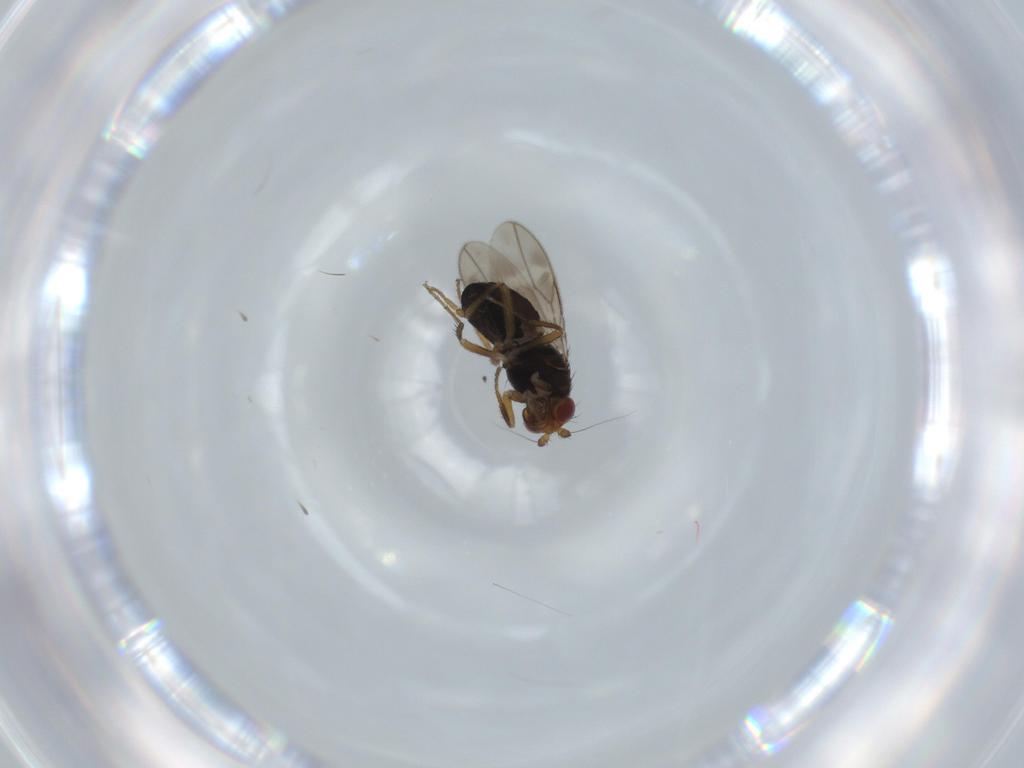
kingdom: Animalia
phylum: Arthropoda
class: Insecta
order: Diptera
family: Sphaeroceridae
